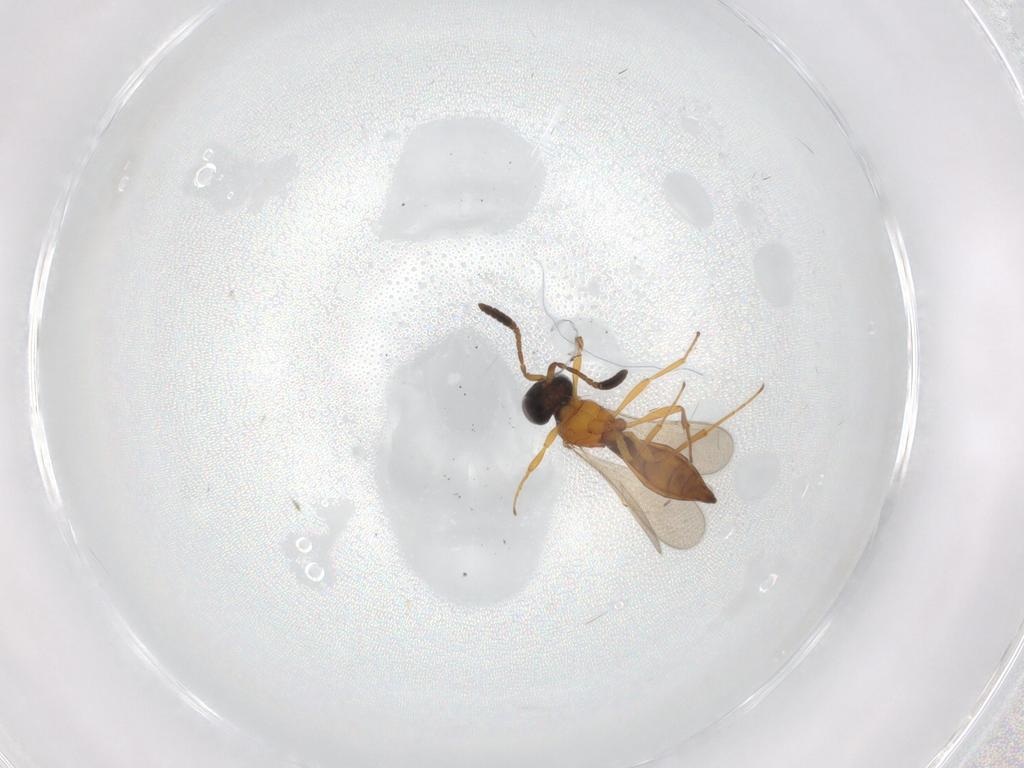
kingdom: Animalia
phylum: Arthropoda
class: Insecta
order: Hymenoptera
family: Scelionidae
